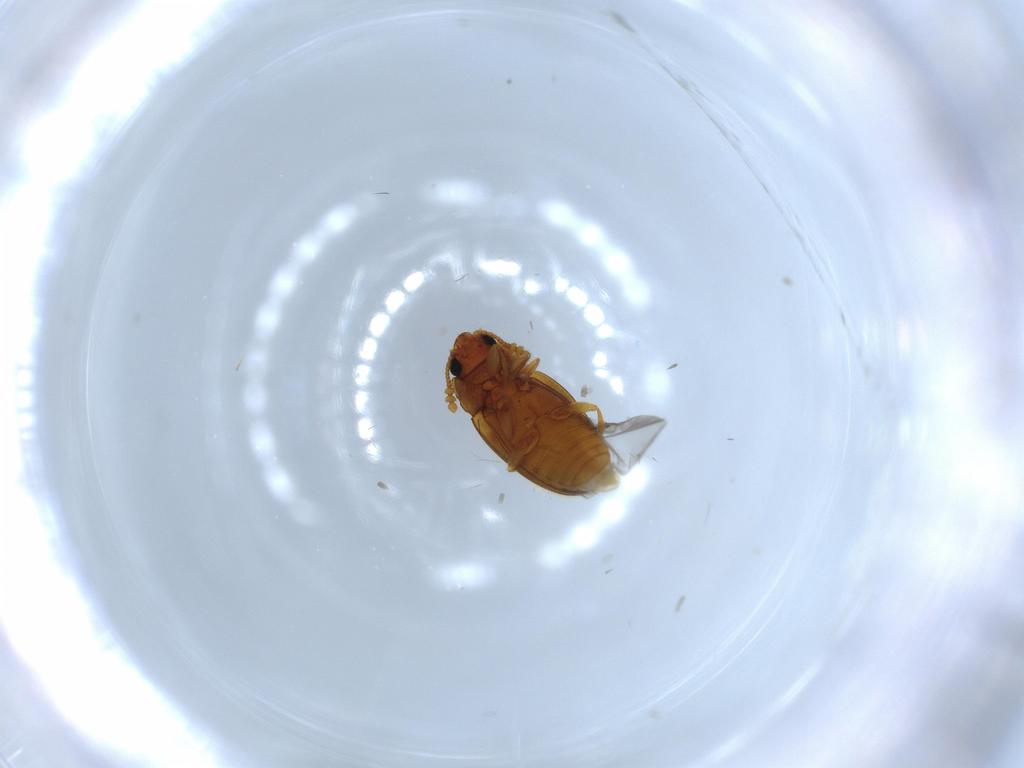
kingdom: Animalia
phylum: Arthropoda
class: Insecta
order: Coleoptera
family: Erotylidae
